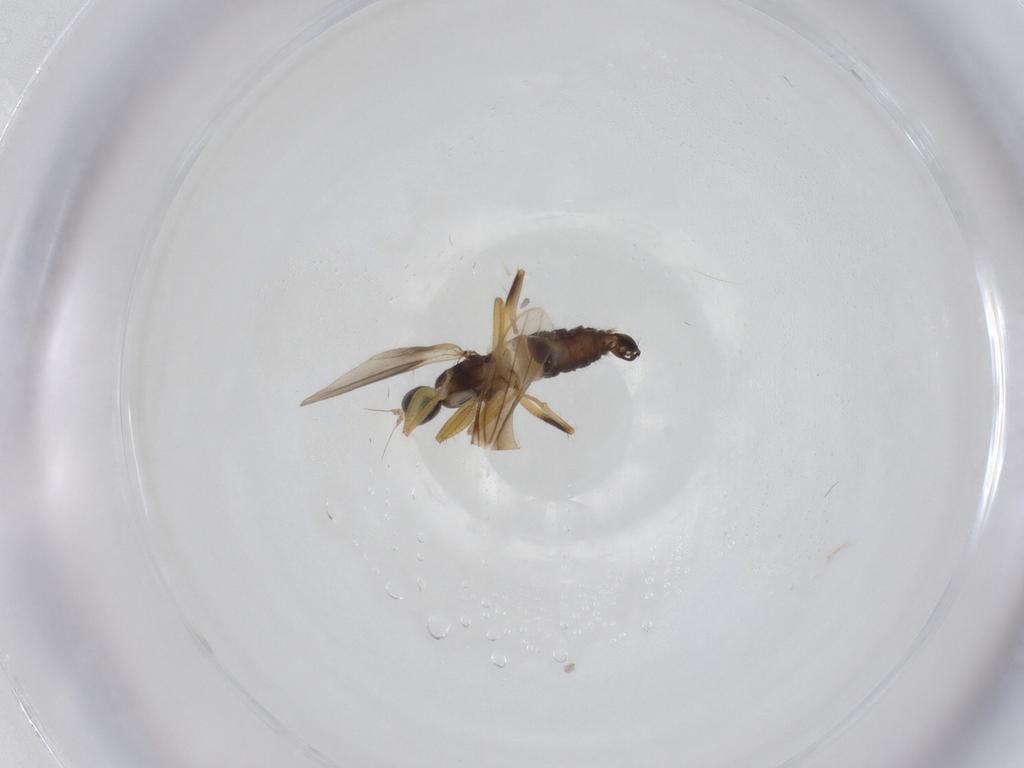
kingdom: Animalia
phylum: Arthropoda
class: Insecta
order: Diptera
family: Hybotidae
